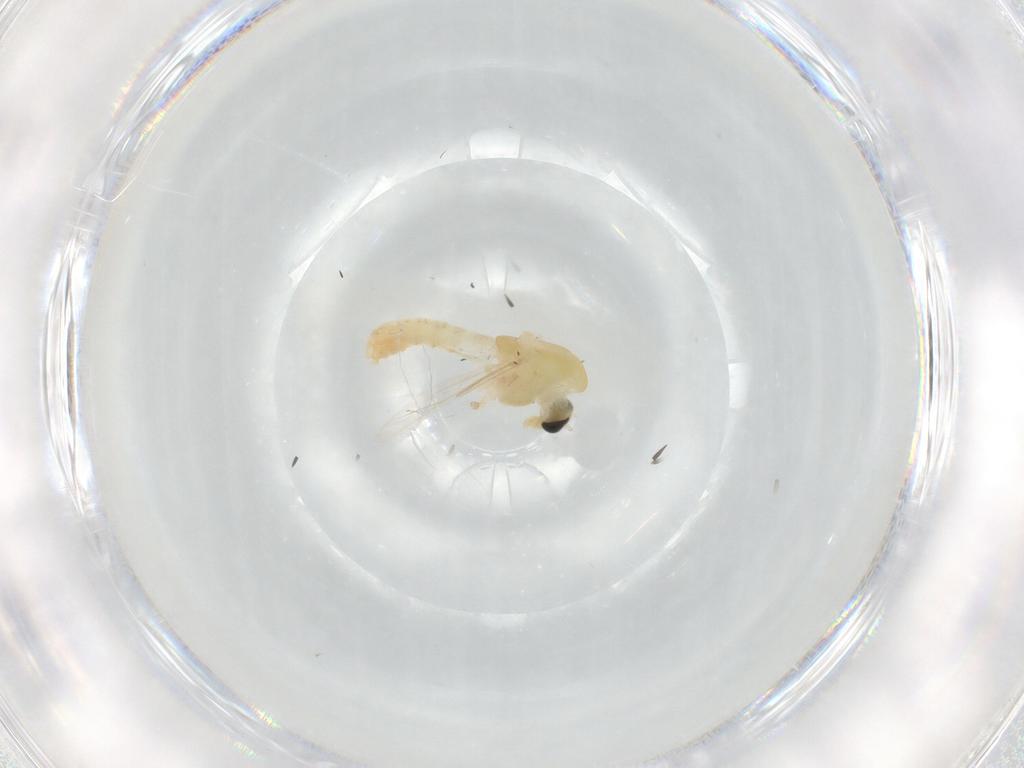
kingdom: Animalia
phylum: Arthropoda
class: Insecta
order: Diptera
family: Chironomidae
